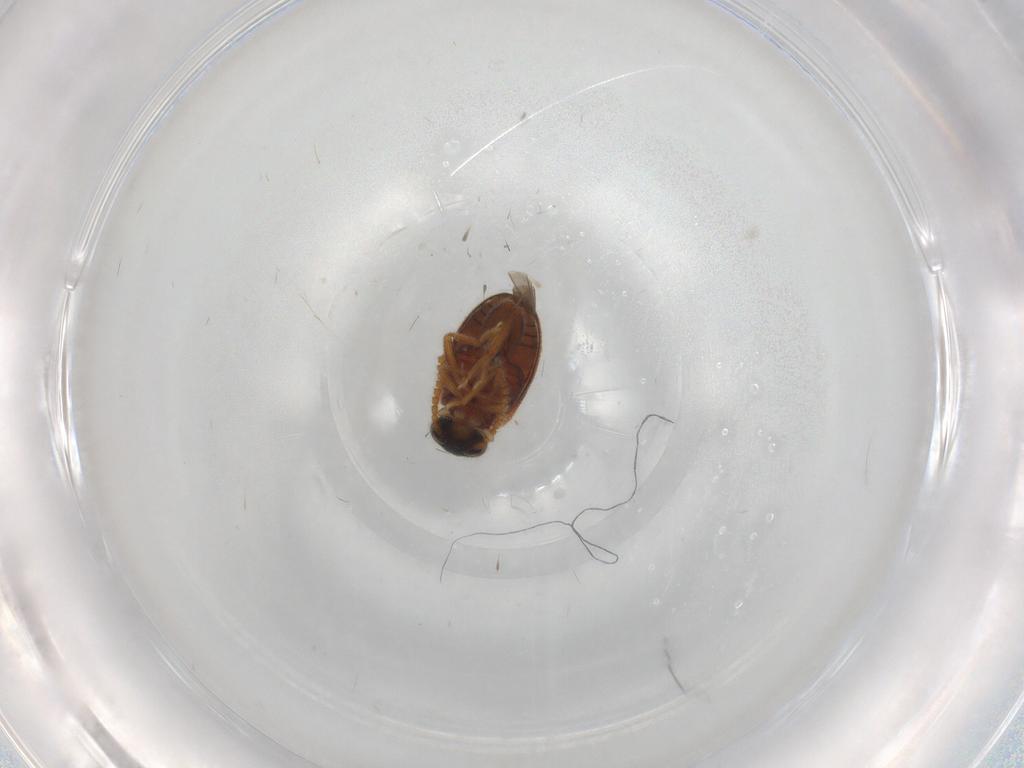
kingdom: Animalia
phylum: Arthropoda
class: Insecta
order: Coleoptera
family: Aderidae
